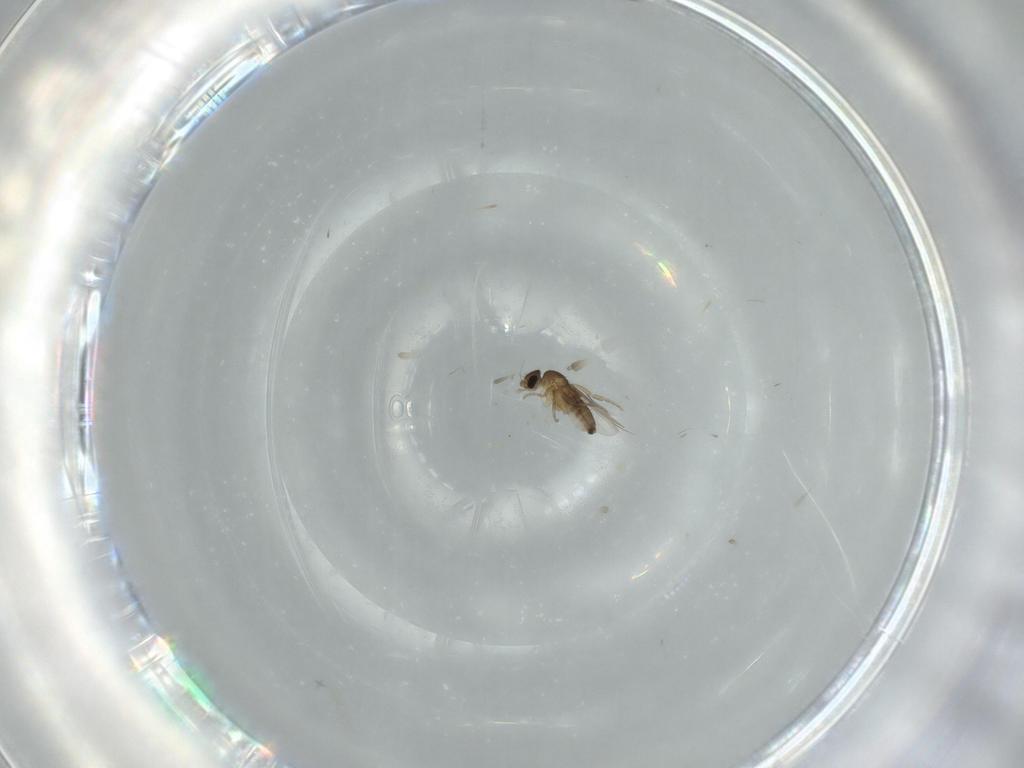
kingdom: Animalia
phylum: Arthropoda
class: Insecta
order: Diptera
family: Phoridae
